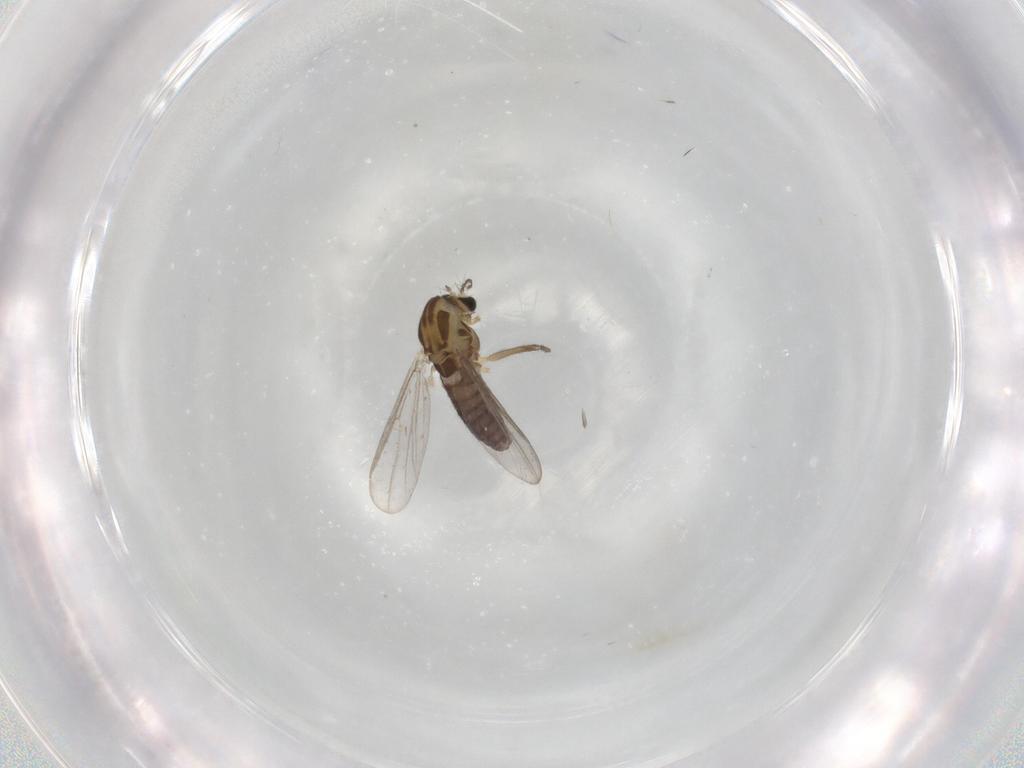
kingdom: Animalia
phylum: Arthropoda
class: Insecta
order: Diptera
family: Chironomidae
